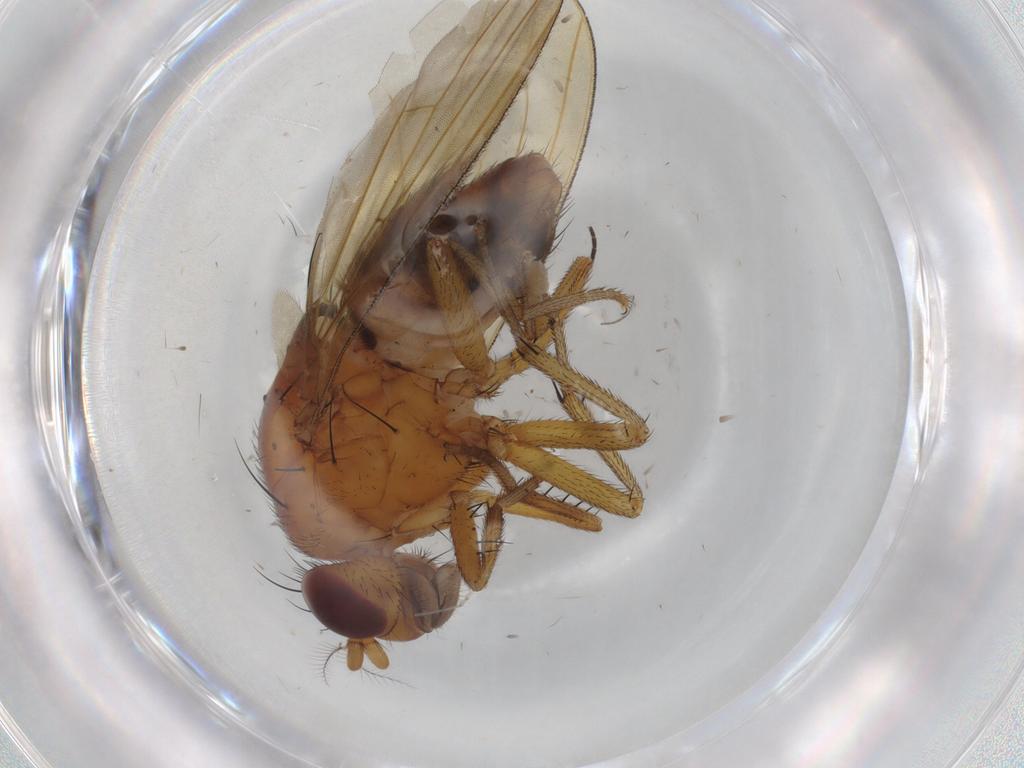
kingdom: Animalia
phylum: Arthropoda
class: Insecta
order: Diptera
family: Cecidomyiidae
